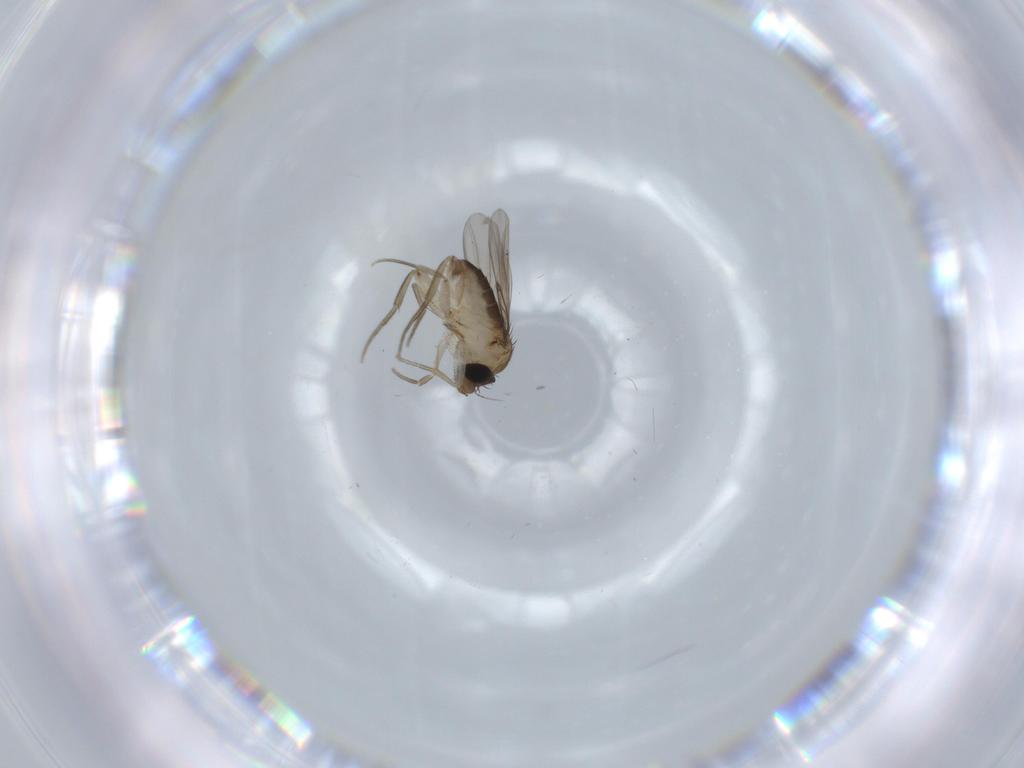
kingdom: Animalia
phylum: Arthropoda
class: Insecta
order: Diptera
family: Phoridae
